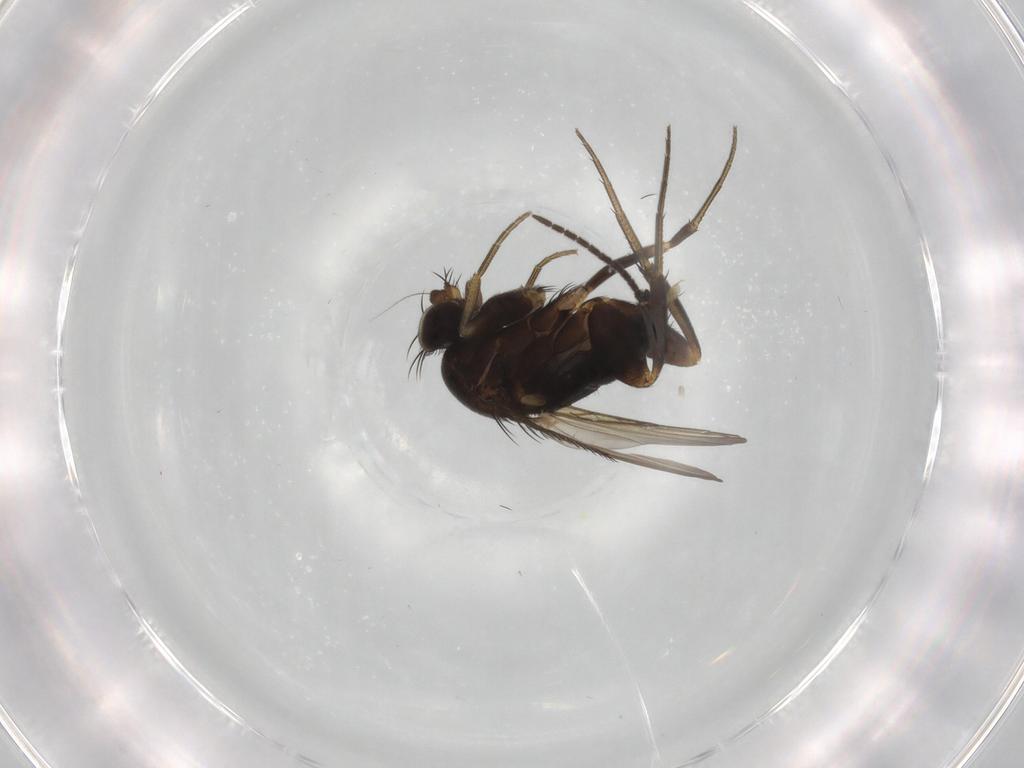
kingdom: Animalia
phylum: Arthropoda
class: Insecta
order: Diptera
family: Phoridae
